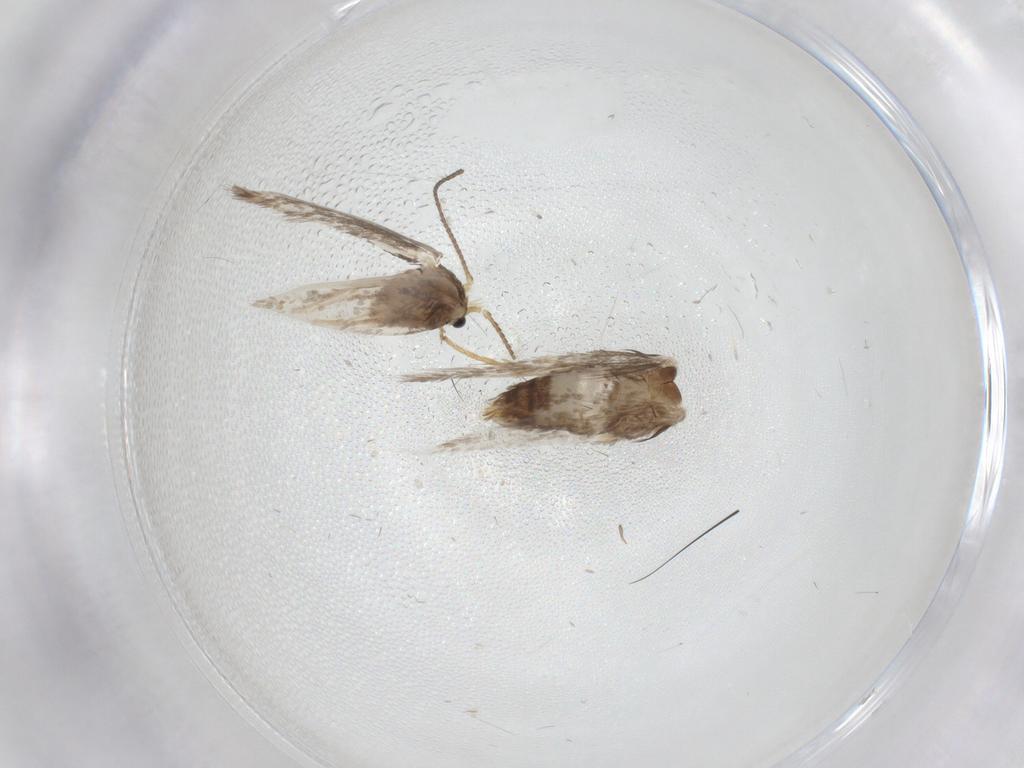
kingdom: Animalia
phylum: Arthropoda
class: Insecta
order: Lepidoptera
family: Nepticulidae
